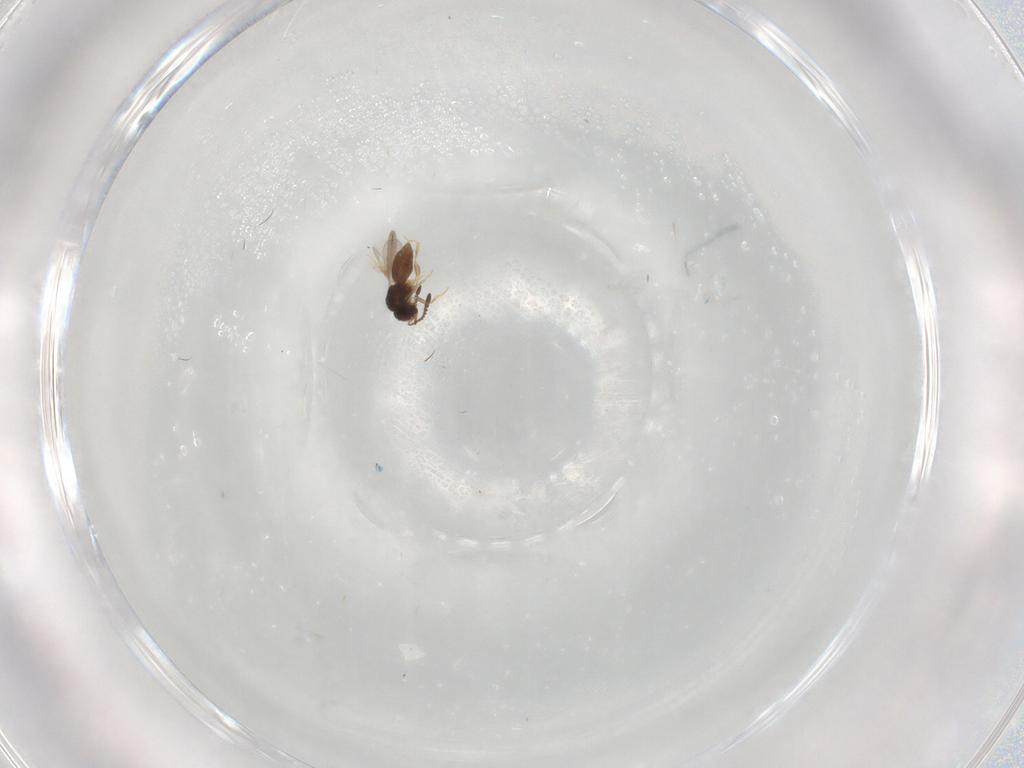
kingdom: Animalia
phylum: Arthropoda
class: Insecta
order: Hymenoptera
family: Ceraphronidae
